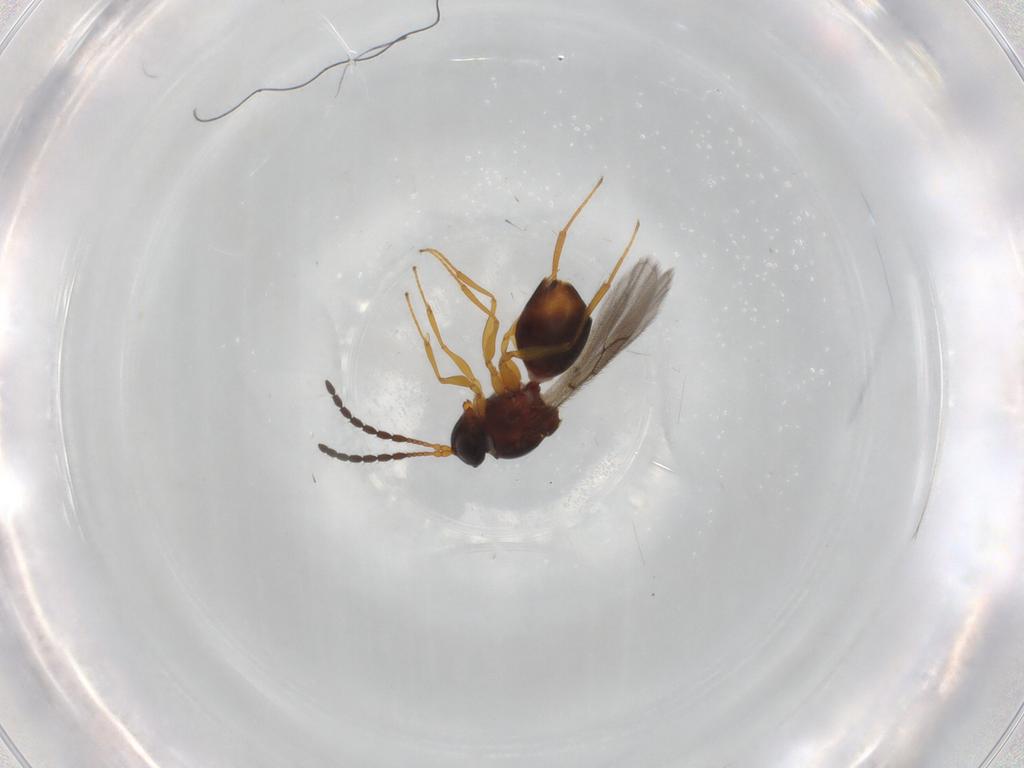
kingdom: Animalia
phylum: Arthropoda
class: Insecta
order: Hymenoptera
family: Figitidae
